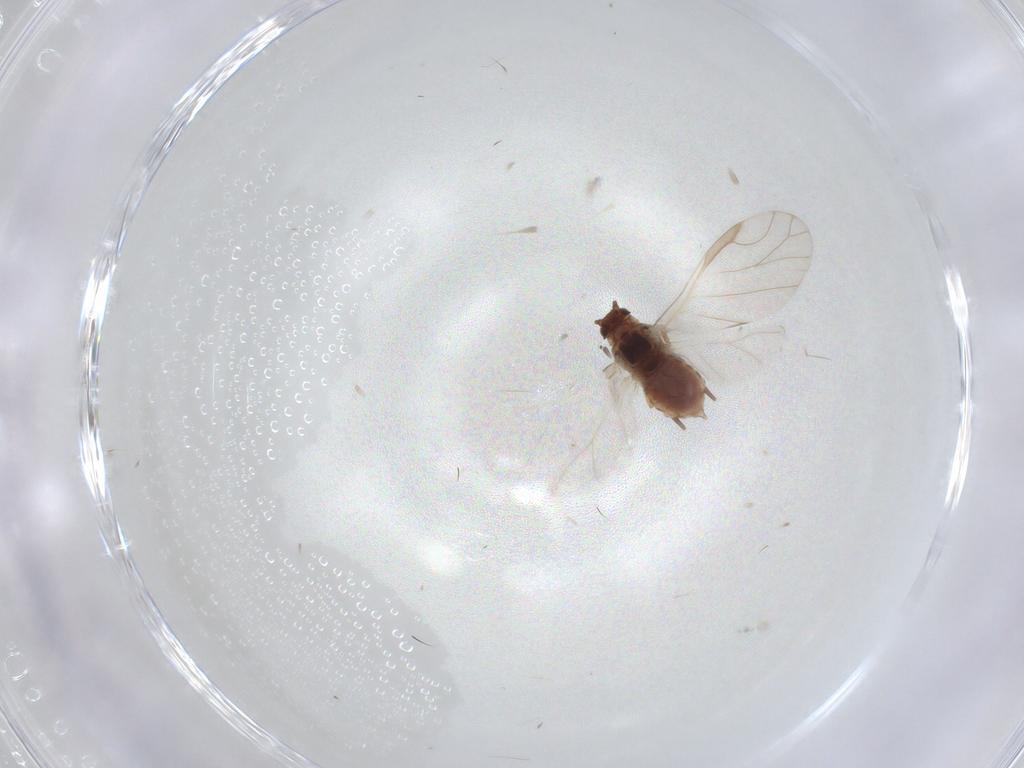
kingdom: Animalia
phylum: Arthropoda
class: Insecta
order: Hemiptera
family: Aphididae
